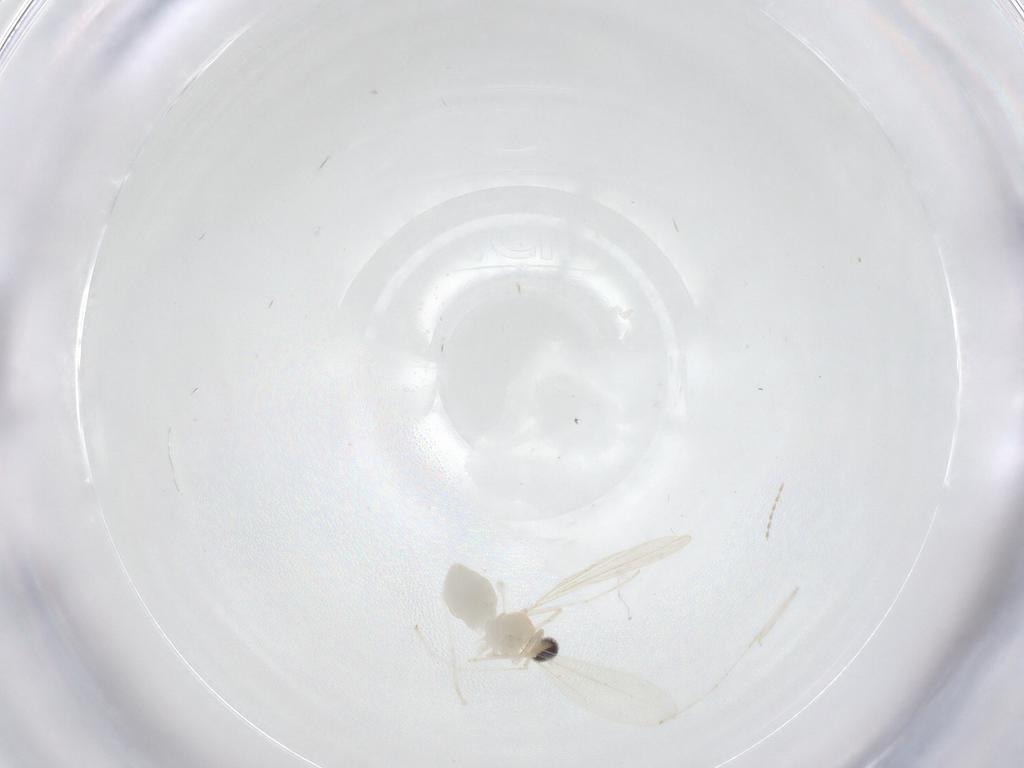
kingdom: Animalia
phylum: Arthropoda
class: Insecta
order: Diptera
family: Cecidomyiidae
